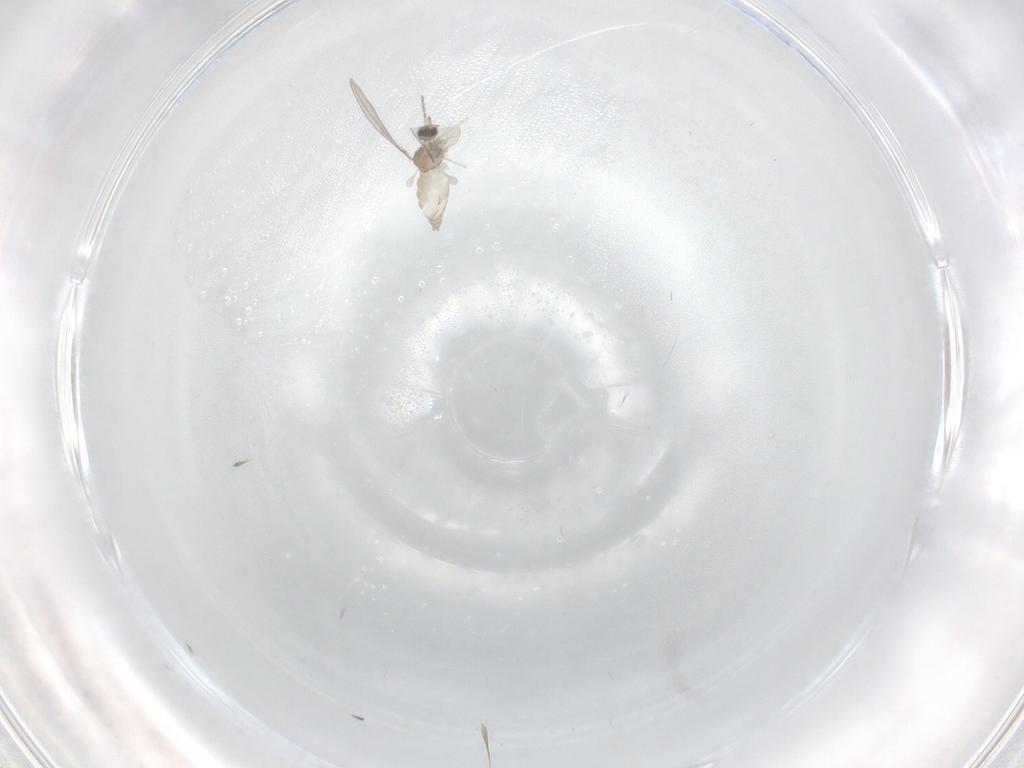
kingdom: Animalia
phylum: Arthropoda
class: Insecta
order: Diptera
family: Cecidomyiidae
